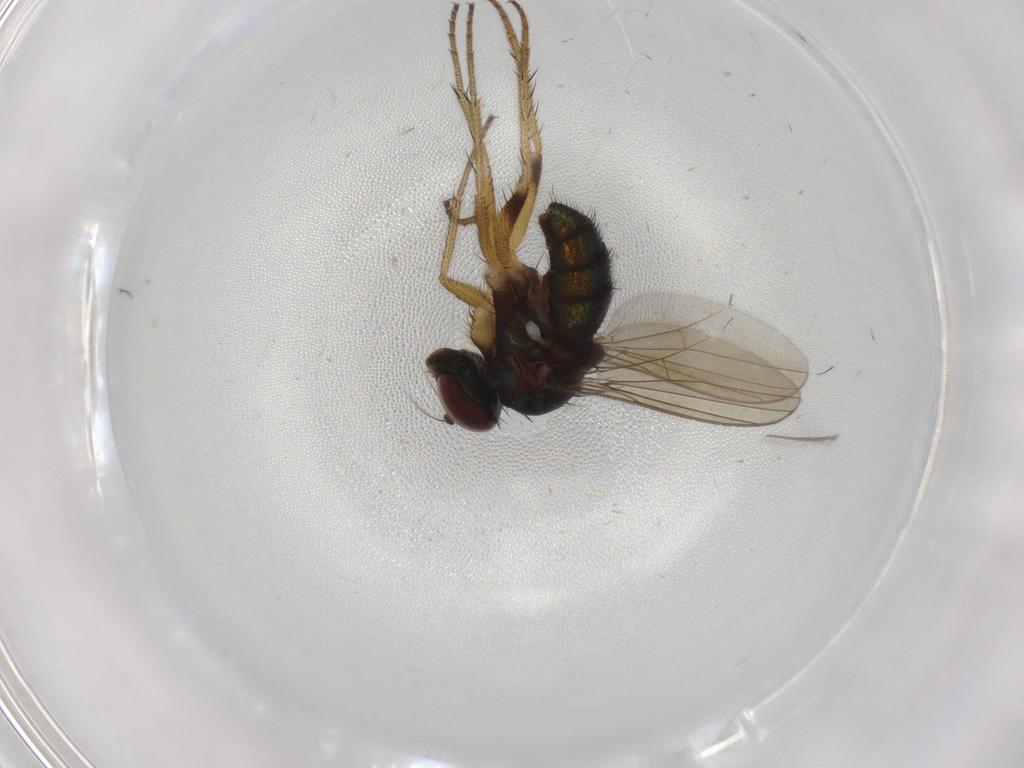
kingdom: Animalia
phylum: Arthropoda
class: Insecta
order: Diptera
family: Dolichopodidae
